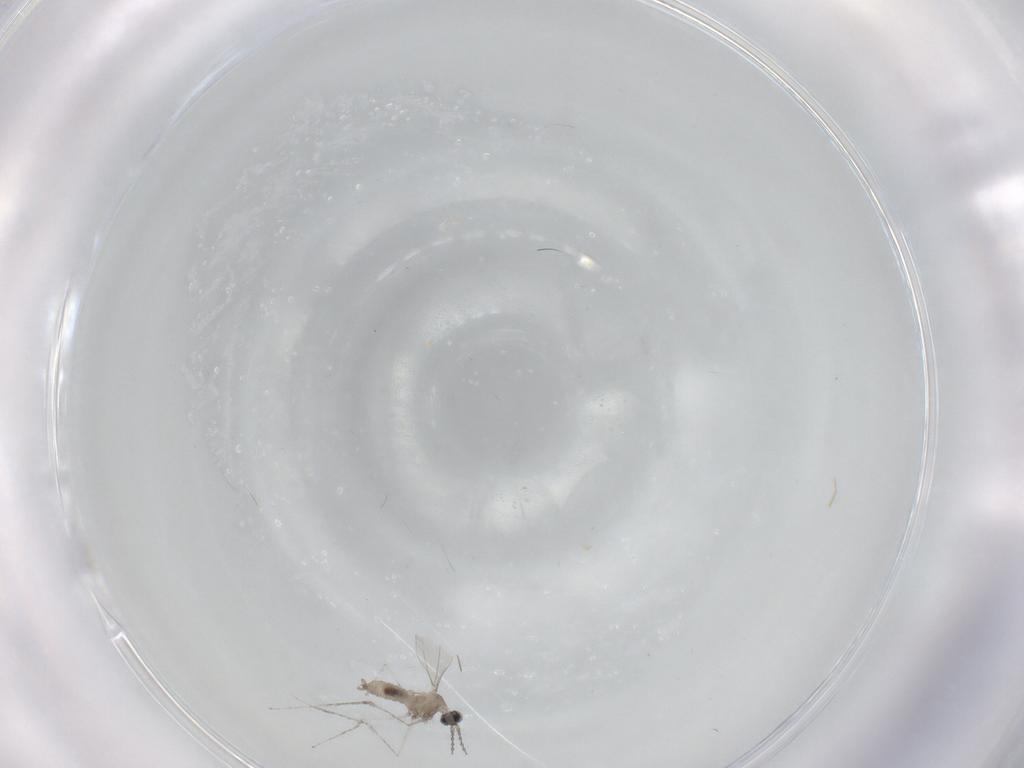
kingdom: Animalia
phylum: Arthropoda
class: Insecta
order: Diptera
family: Cecidomyiidae
